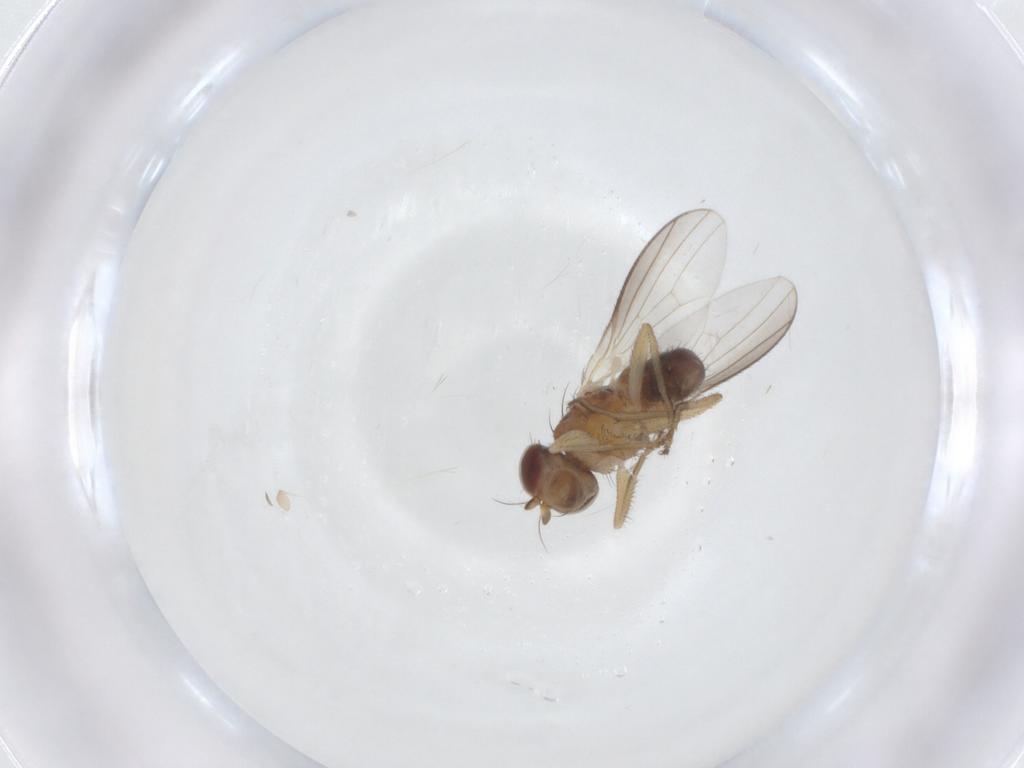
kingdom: Animalia
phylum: Arthropoda
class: Insecta
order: Diptera
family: Heleomyzidae
